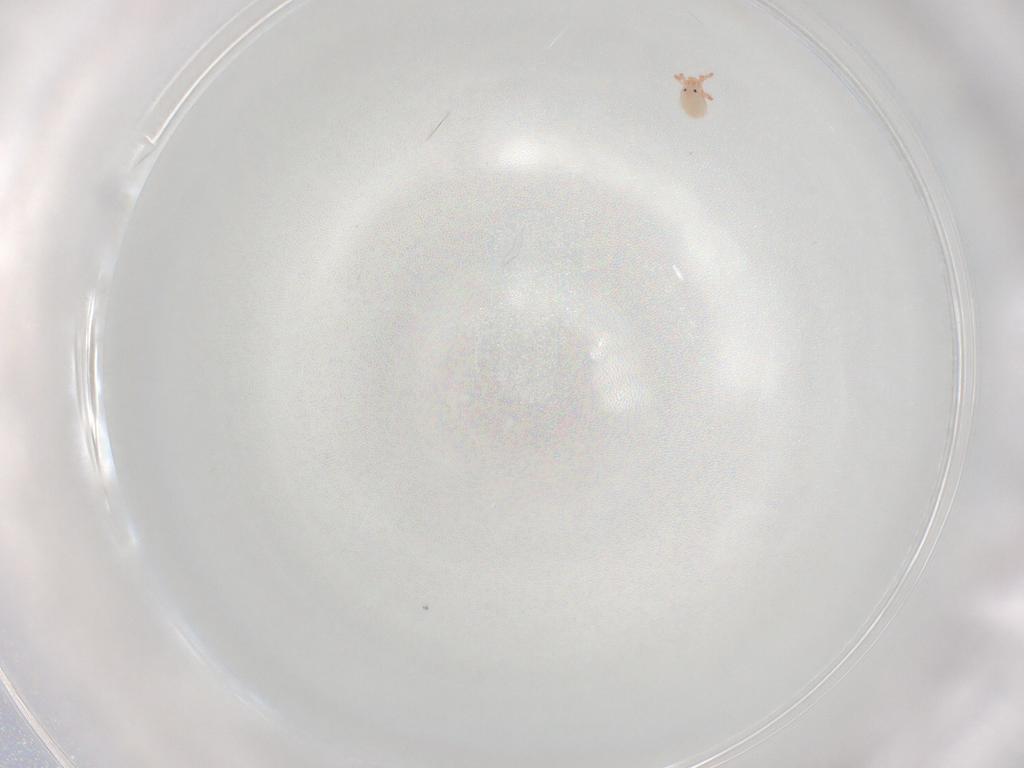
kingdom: Animalia
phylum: Arthropoda
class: Arachnida
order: Trombidiformes
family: Lebertiidae
